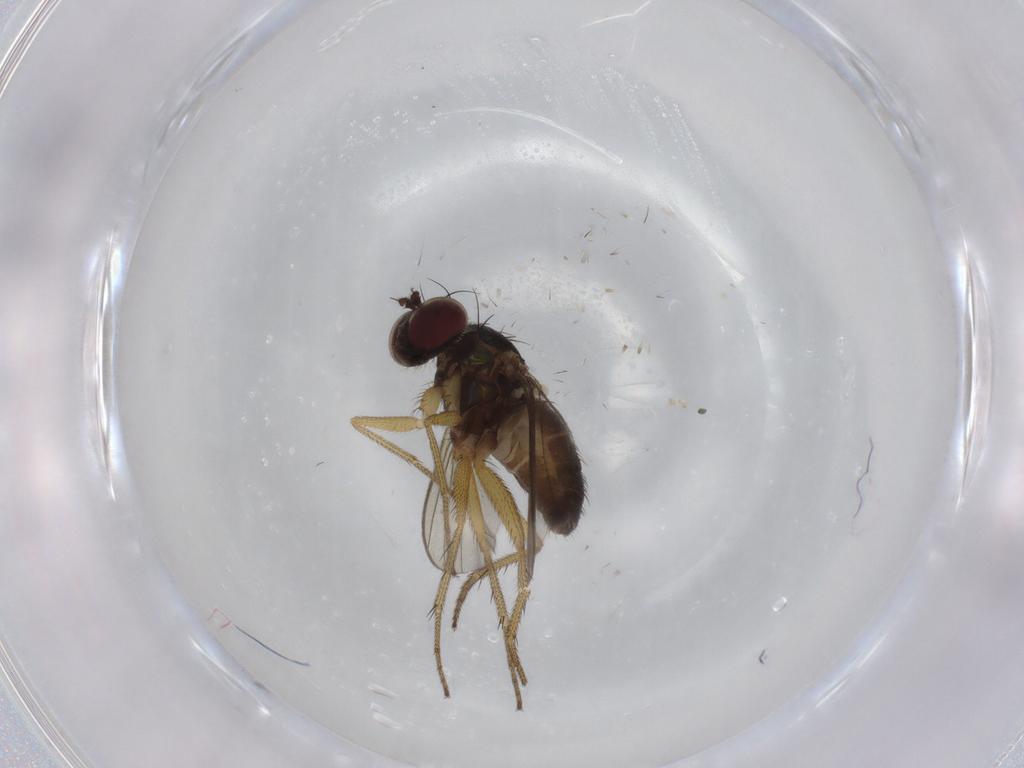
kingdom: Animalia
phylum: Arthropoda
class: Insecta
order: Diptera
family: Dolichopodidae
